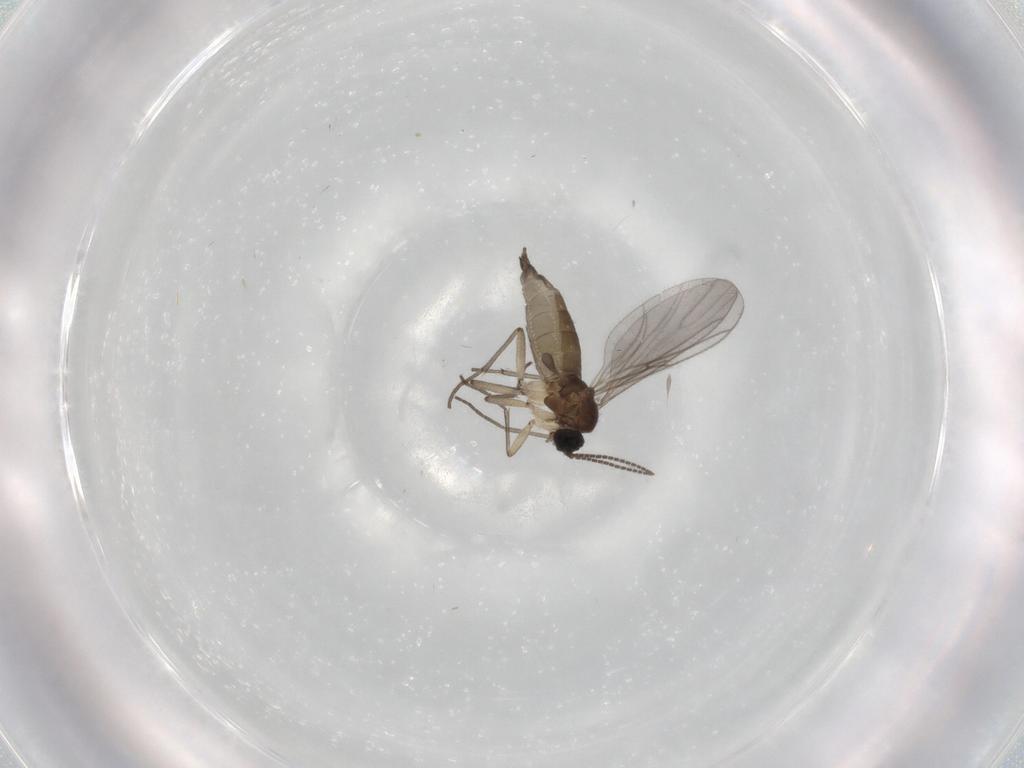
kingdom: Animalia
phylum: Arthropoda
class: Insecta
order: Diptera
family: Sciaridae
